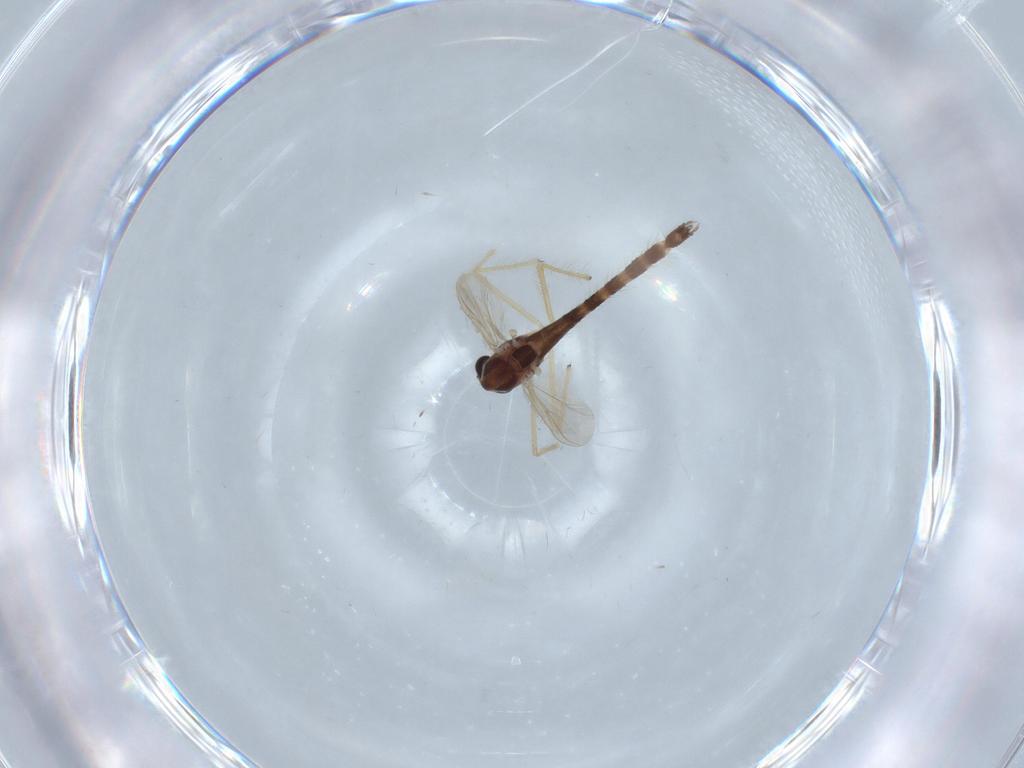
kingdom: Animalia
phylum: Arthropoda
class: Insecta
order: Diptera
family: Chironomidae
